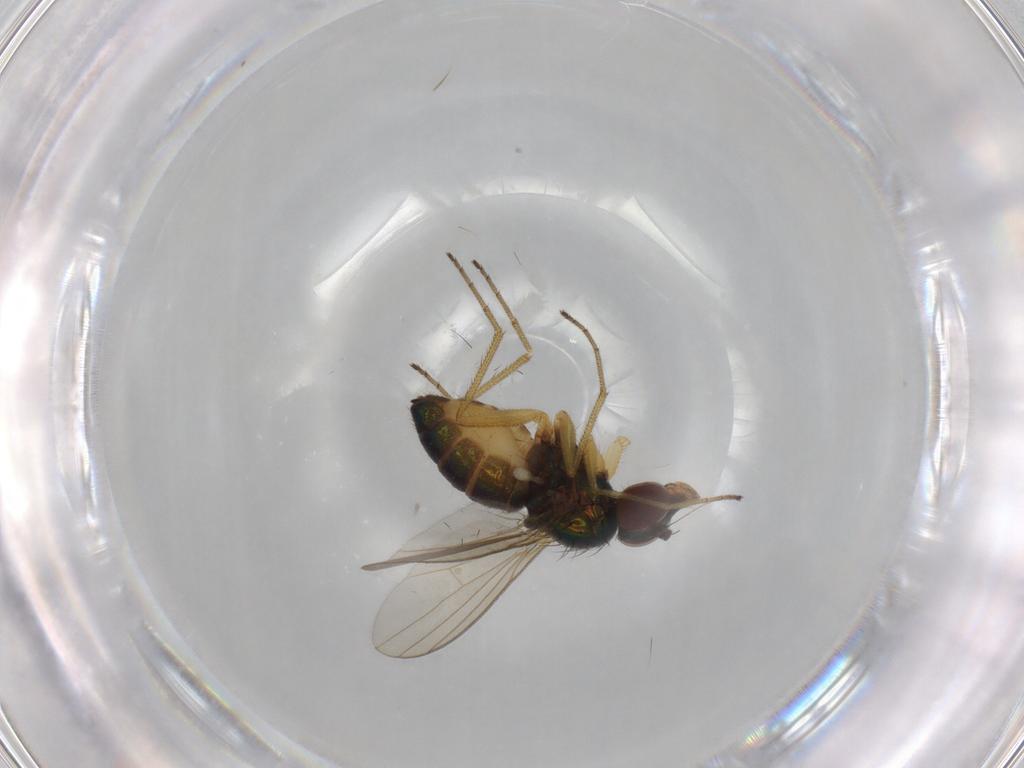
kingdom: Animalia
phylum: Arthropoda
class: Insecta
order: Diptera
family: Dolichopodidae
